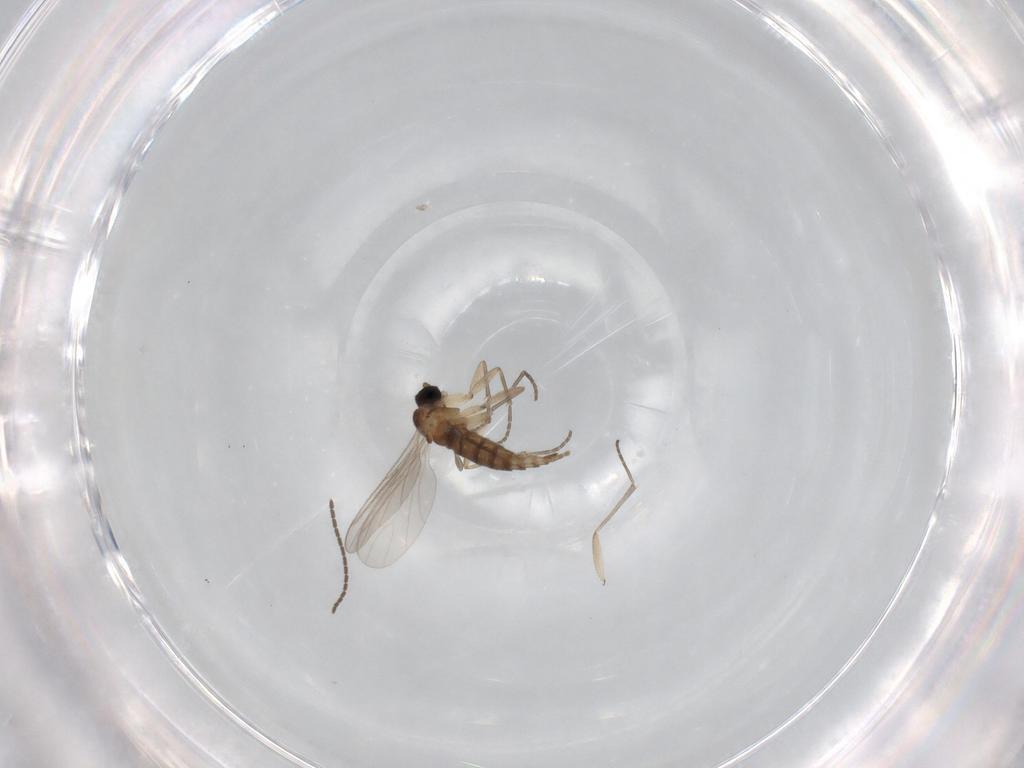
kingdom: Animalia
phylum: Arthropoda
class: Insecta
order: Diptera
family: Sciaridae
